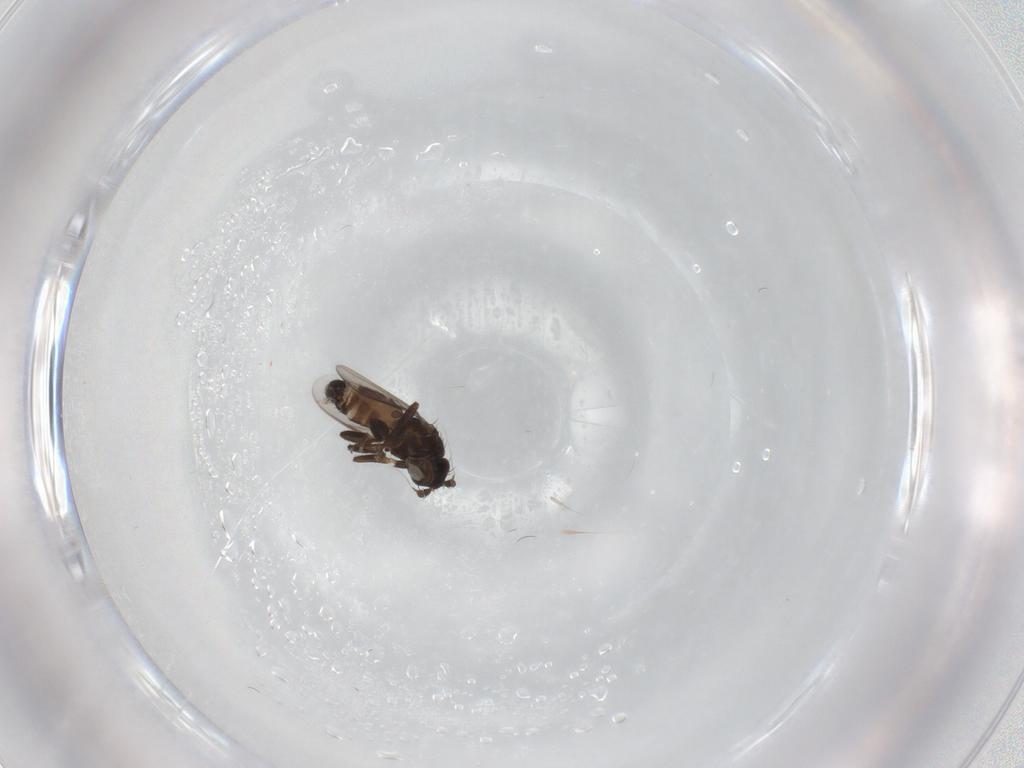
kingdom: Animalia
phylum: Arthropoda
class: Insecta
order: Diptera
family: Sphaeroceridae
